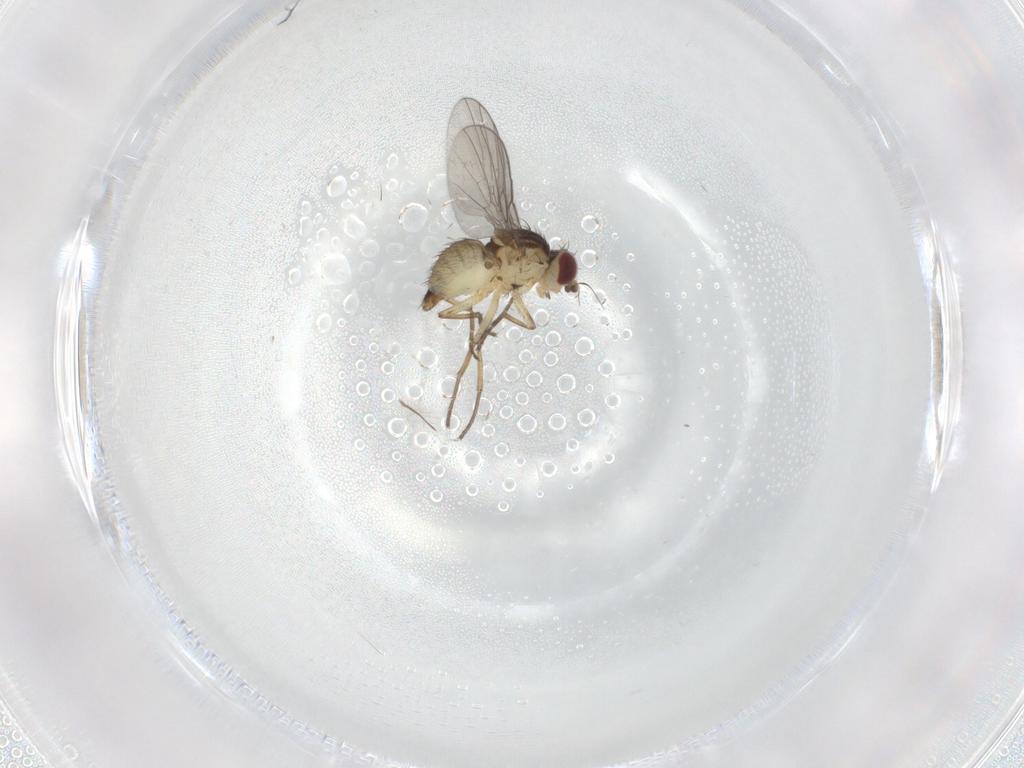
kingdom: Animalia
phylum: Arthropoda
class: Insecta
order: Diptera
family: Agromyzidae
